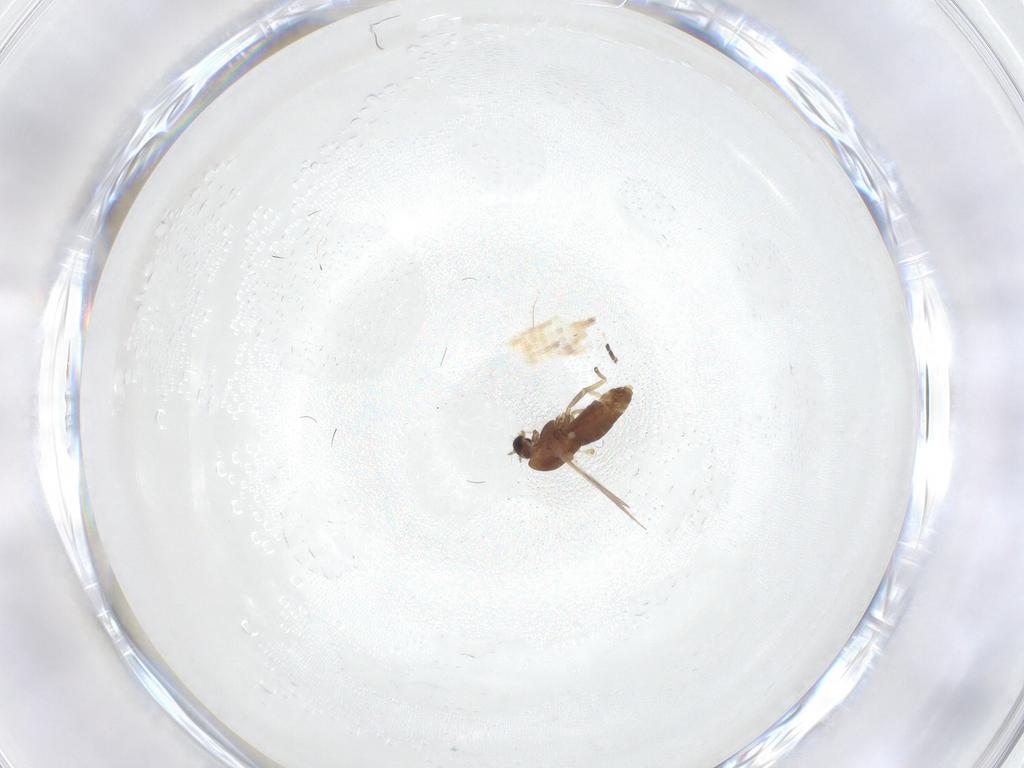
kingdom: Animalia
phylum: Arthropoda
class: Insecta
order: Diptera
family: Chironomidae
